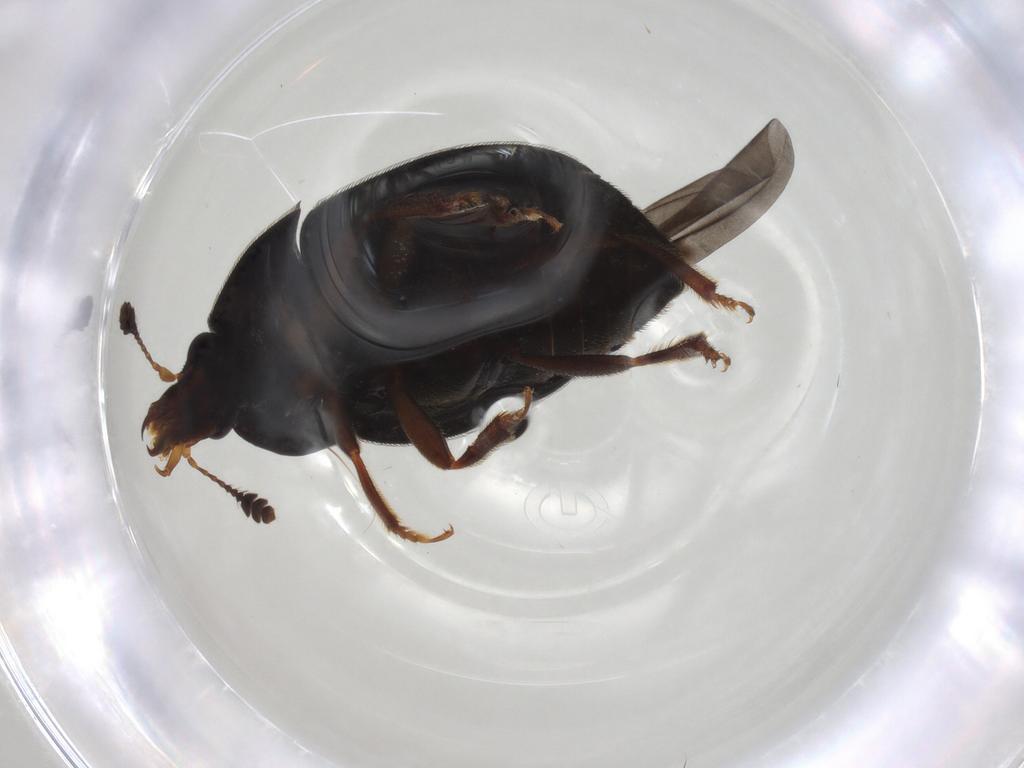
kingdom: Animalia
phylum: Arthropoda
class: Insecta
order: Coleoptera
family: Ptilodactylidae
